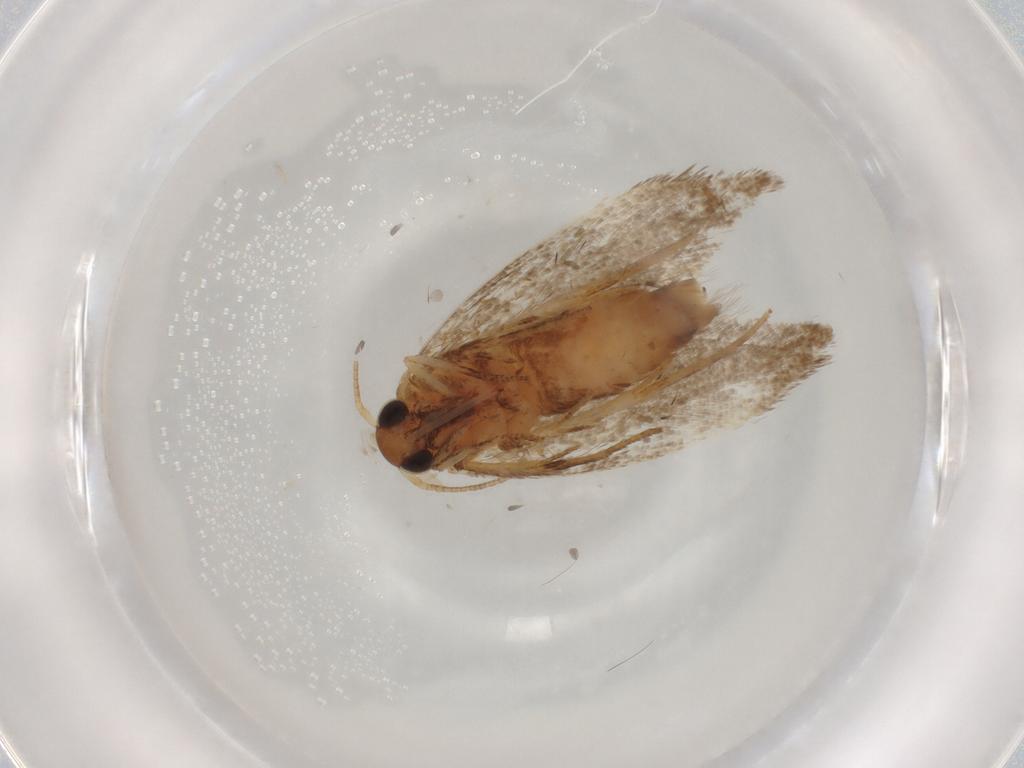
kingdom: Animalia
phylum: Arthropoda
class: Insecta
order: Lepidoptera
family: Oecophoridae
